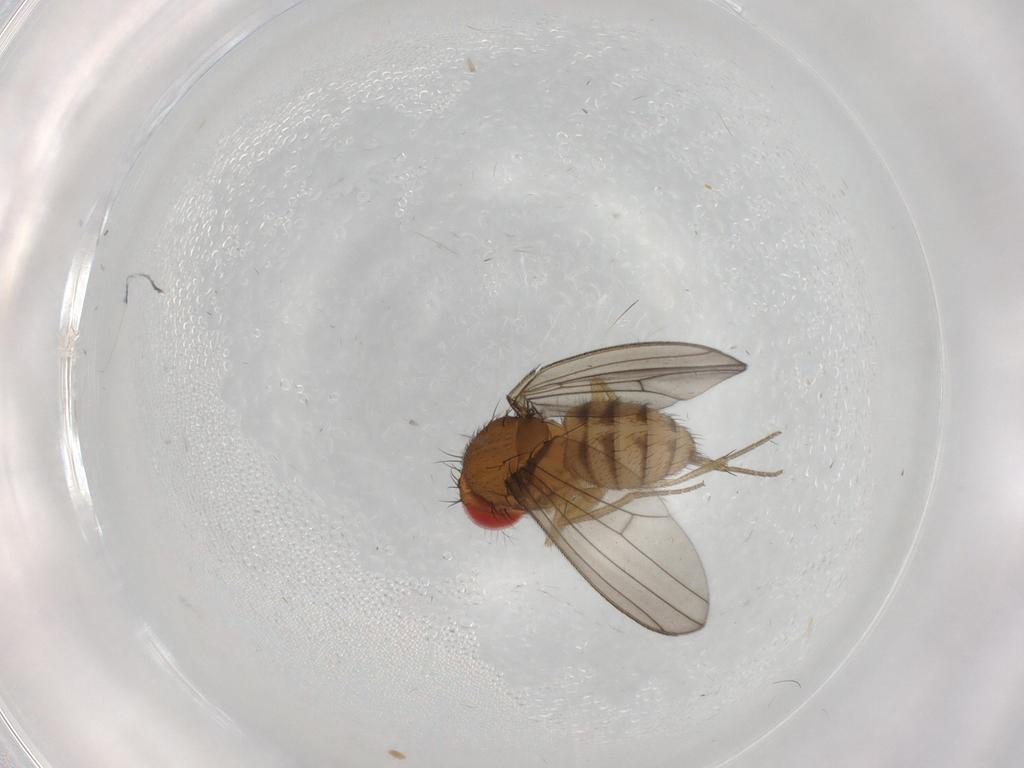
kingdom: Animalia
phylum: Arthropoda
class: Insecta
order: Diptera
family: Drosophilidae
